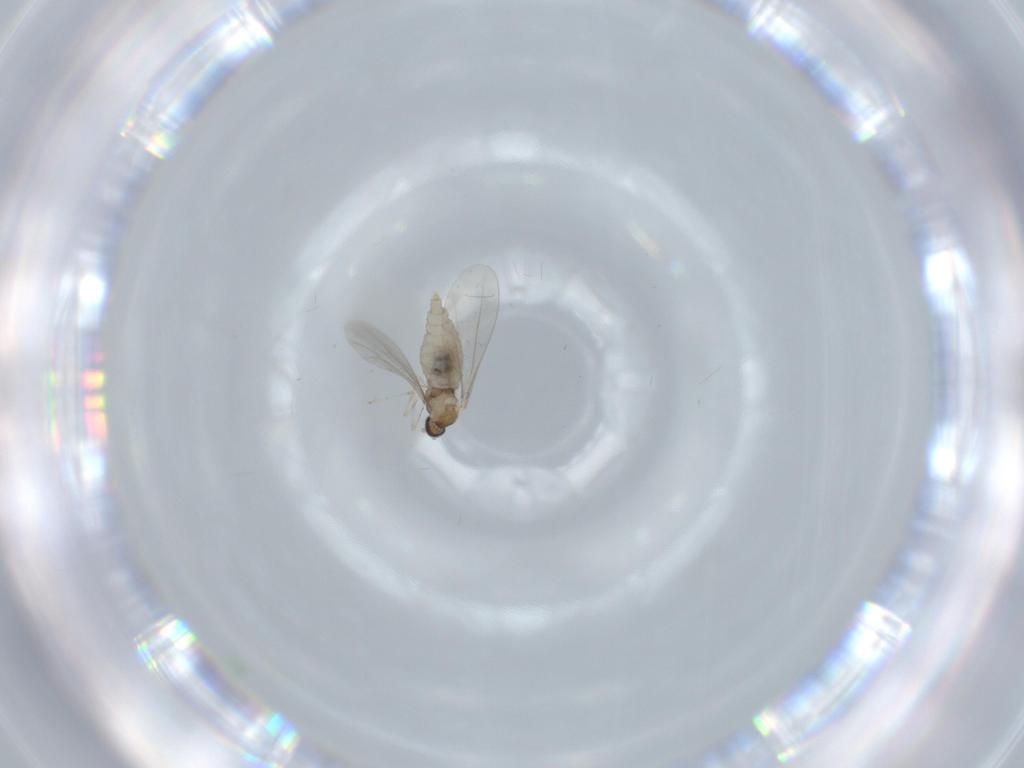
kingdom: Animalia
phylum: Arthropoda
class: Insecta
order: Diptera
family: Cecidomyiidae
